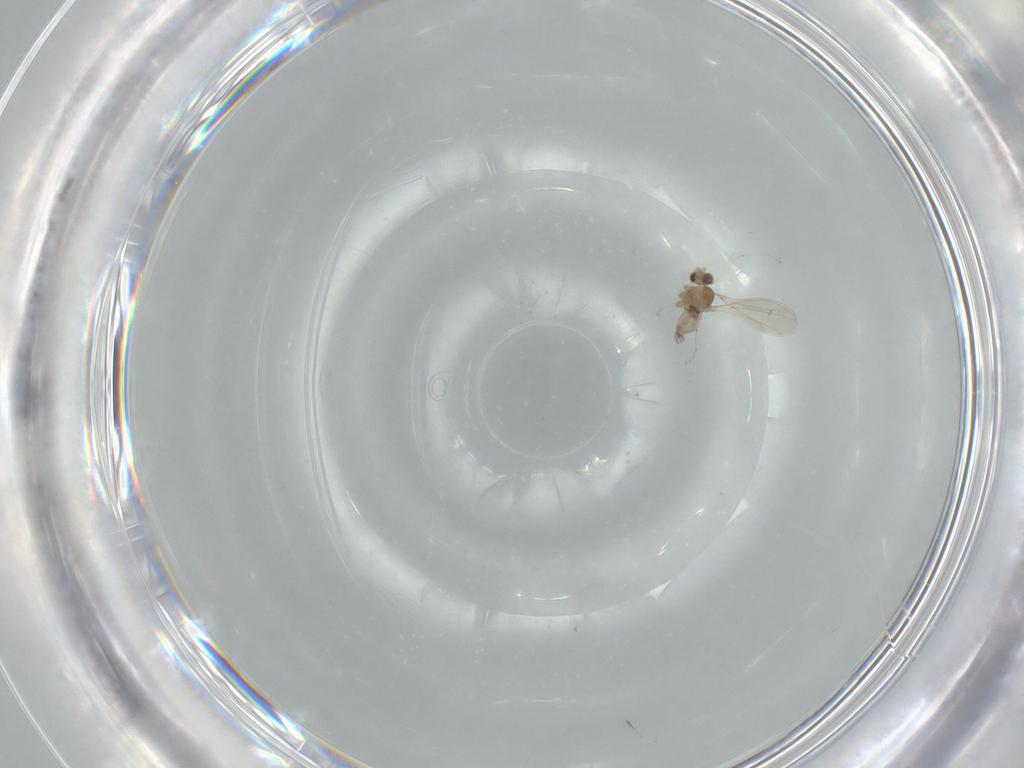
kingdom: Animalia
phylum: Arthropoda
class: Insecta
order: Diptera
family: Cecidomyiidae
